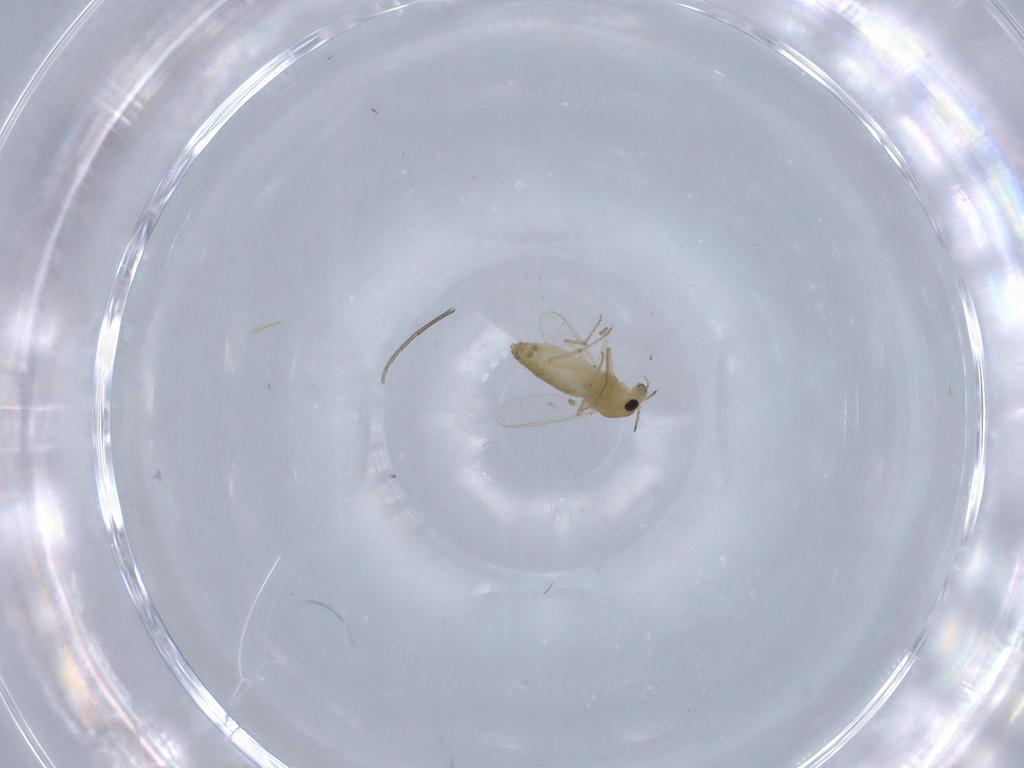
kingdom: Animalia
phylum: Arthropoda
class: Insecta
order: Diptera
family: Chironomidae
